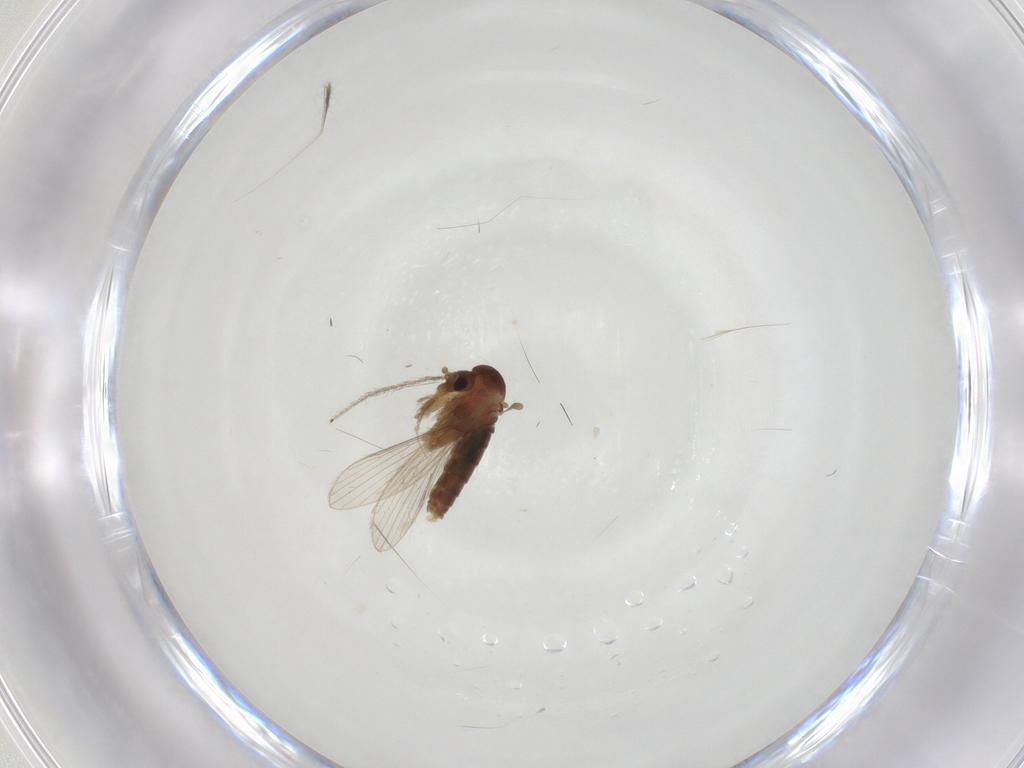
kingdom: Animalia
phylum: Arthropoda
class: Insecta
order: Diptera
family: Psychodidae
